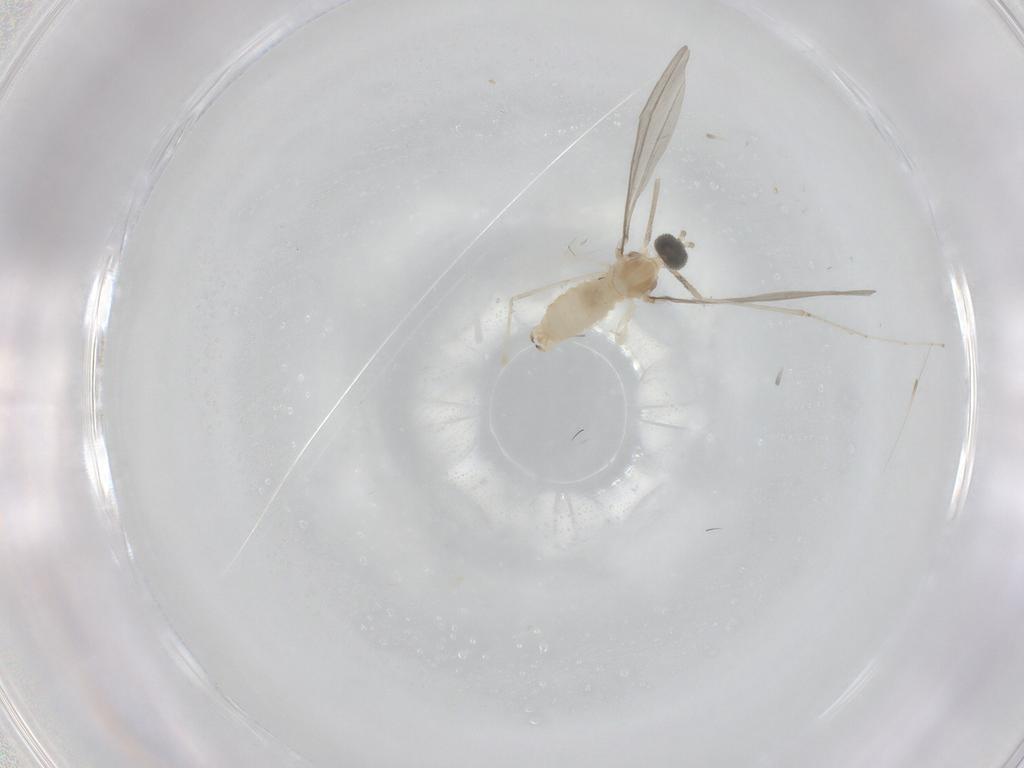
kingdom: Animalia
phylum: Arthropoda
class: Insecta
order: Diptera
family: Cecidomyiidae
